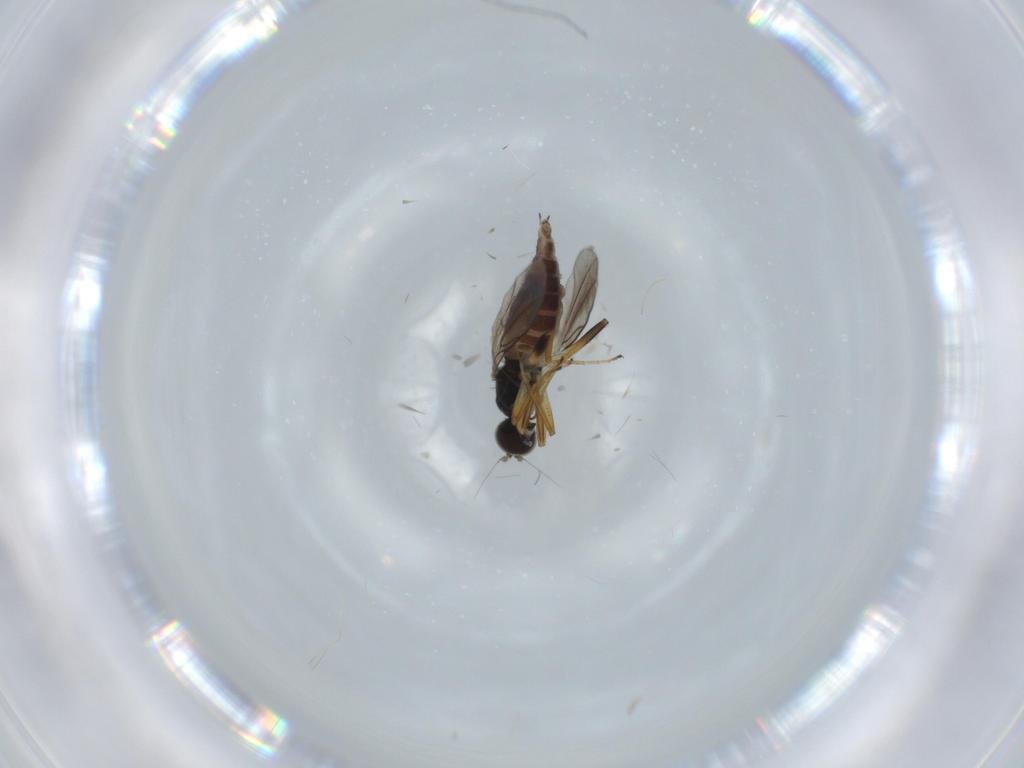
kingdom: Animalia
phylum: Arthropoda
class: Insecta
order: Diptera
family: Hybotidae
